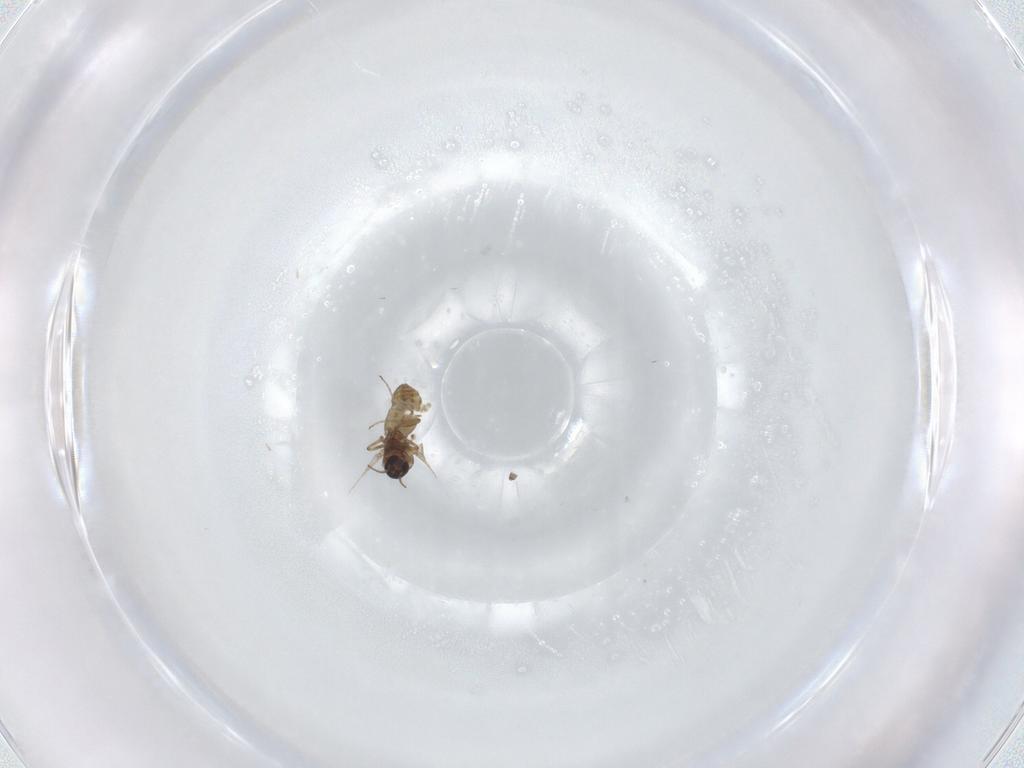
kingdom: Animalia
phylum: Arthropoda
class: Insecta
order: Diptera
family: Ceratopogonidae
